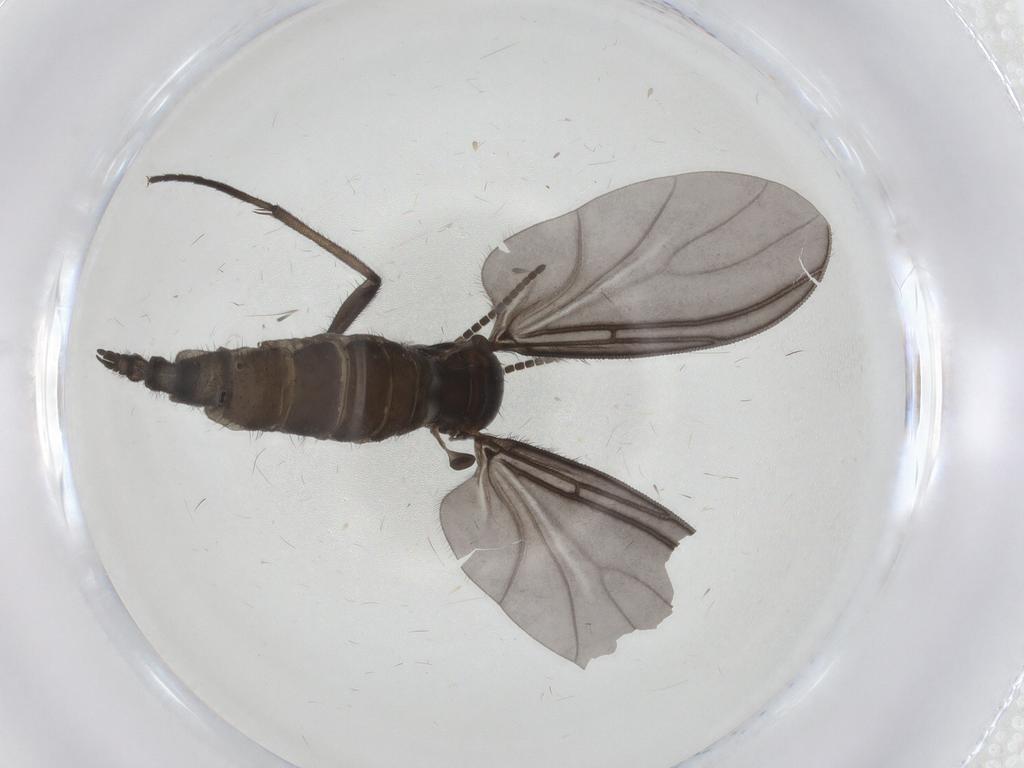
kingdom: Animalia
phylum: Arthropoda
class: Insecta
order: Diptera
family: Sciaridae
